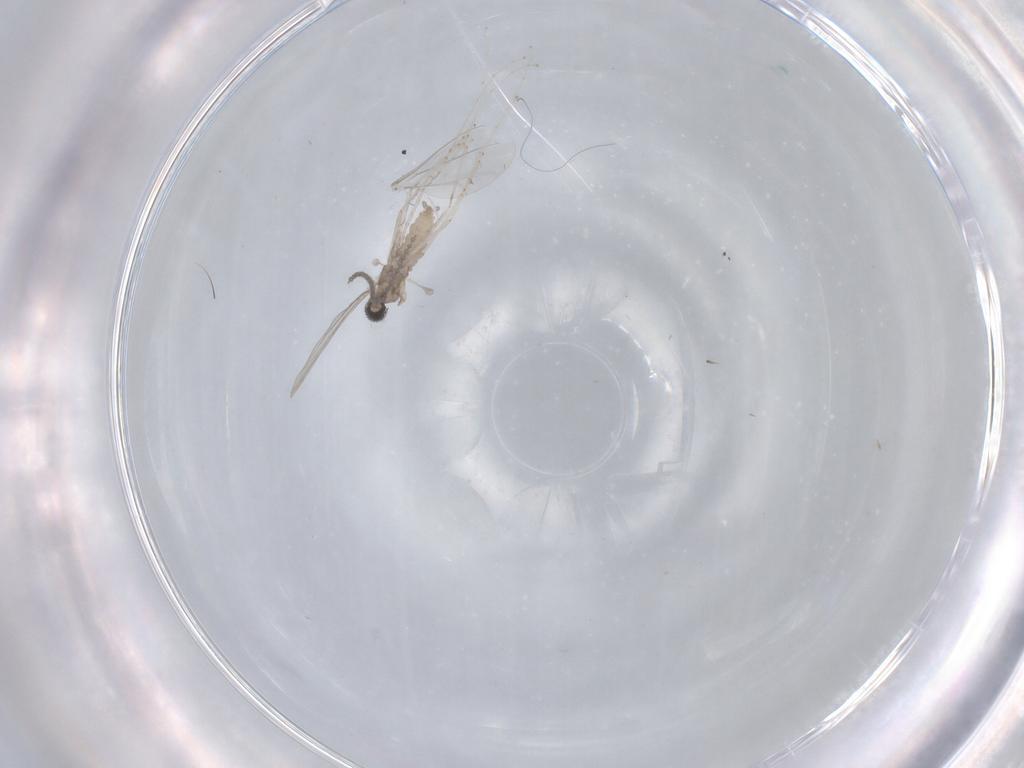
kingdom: Animalia
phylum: Arthropoda
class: Insecta
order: Diptera
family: Cecidomyiidae
